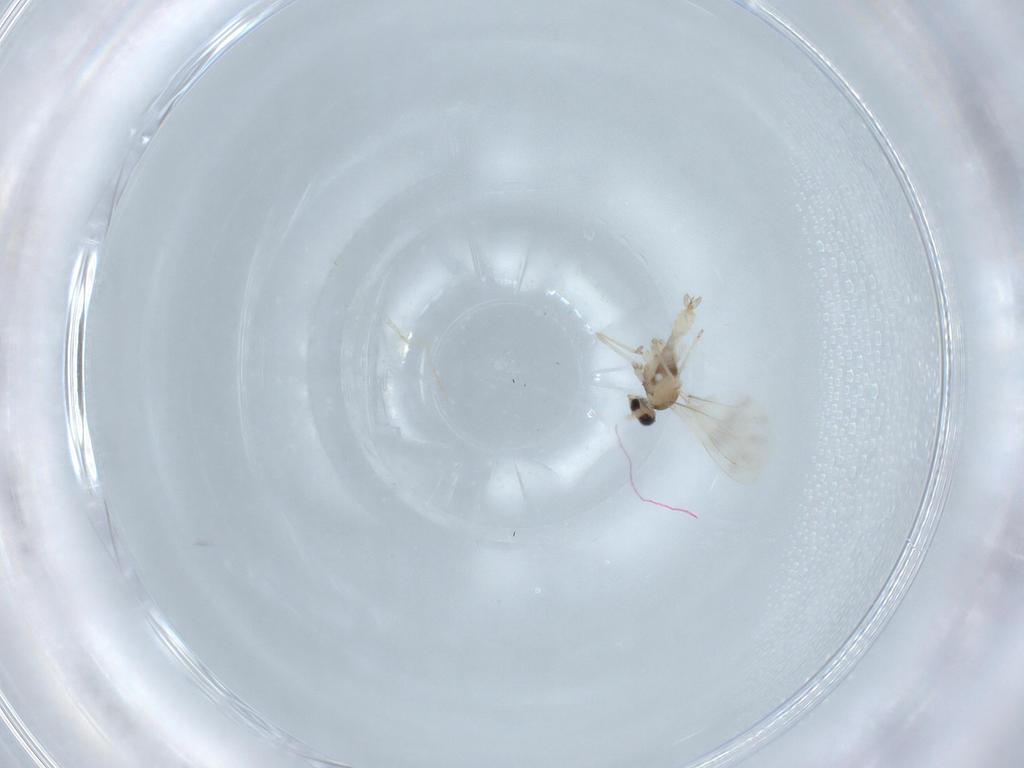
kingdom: Animalia
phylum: Arthropoda
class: Insecta
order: Diptera
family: Cecidomyiidae
